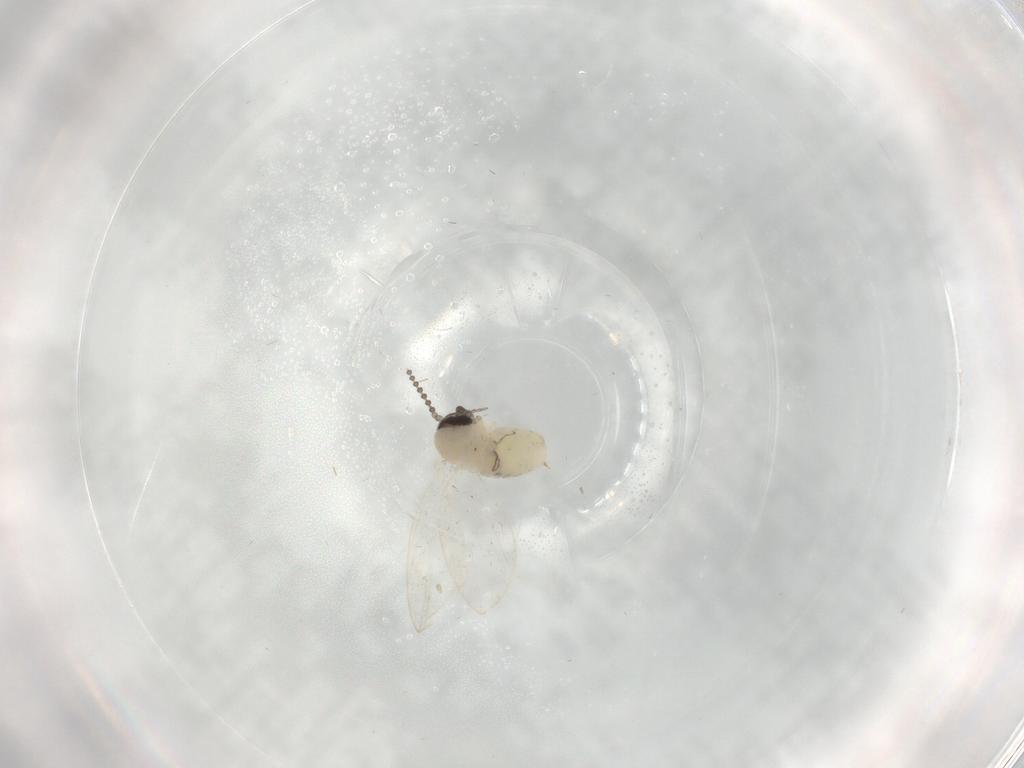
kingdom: Animalia
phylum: Arthropoda
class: Insecta
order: Diptera
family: Psychodidae
